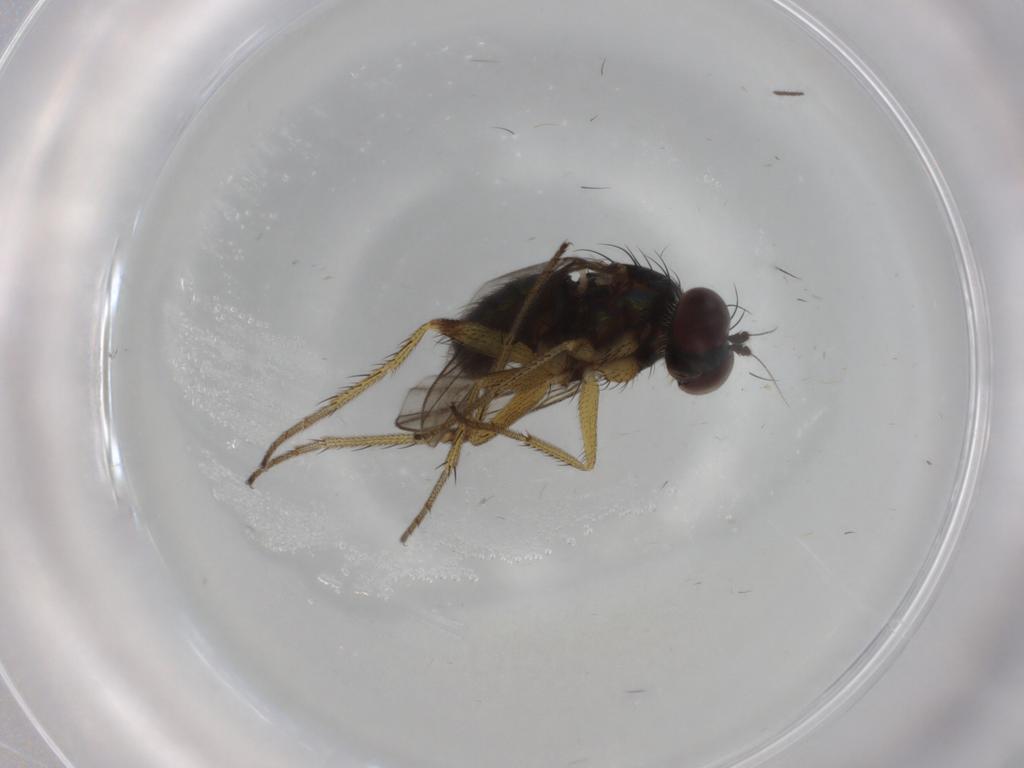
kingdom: Animalia
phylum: Arthropoda
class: Insecta
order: Diptera
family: Dolichopodidae
